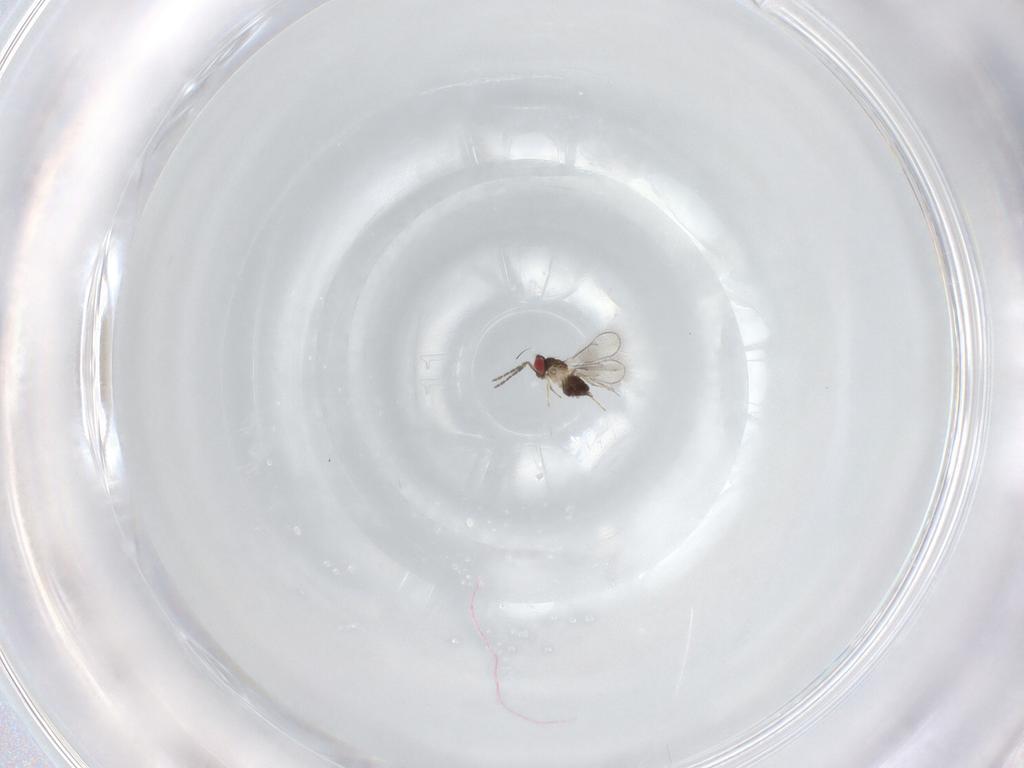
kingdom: Animalia
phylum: Arthropoda
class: Insecta
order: Hymenoptera
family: Eulophidae
